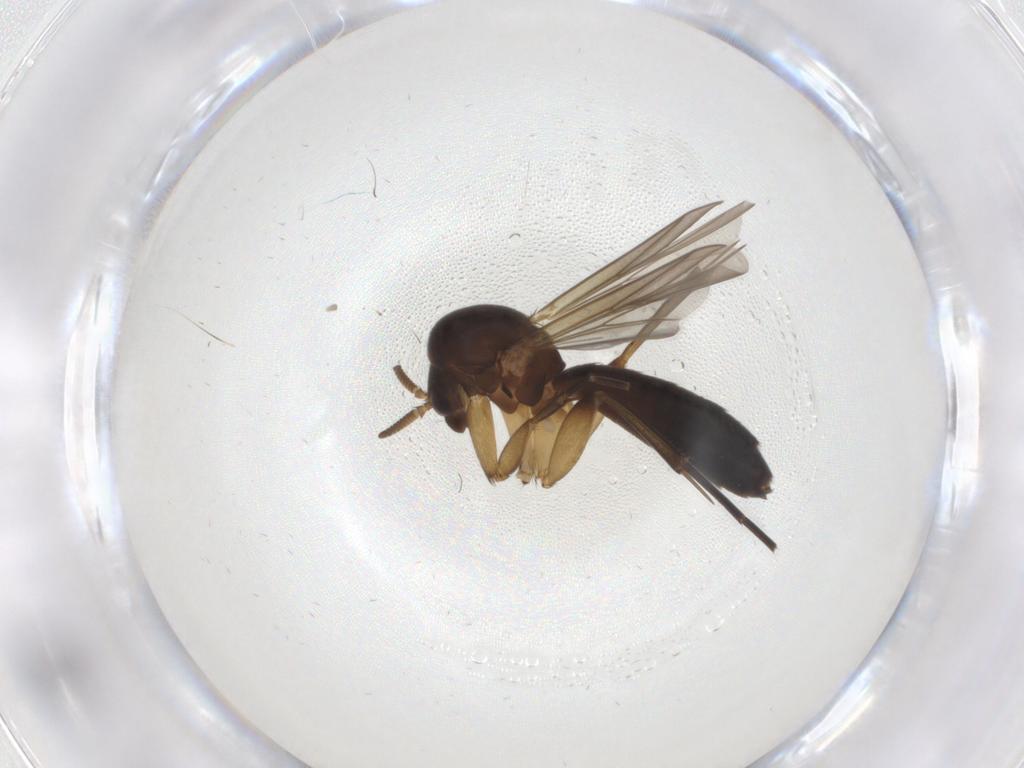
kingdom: Animalia
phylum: Arthropoda
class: Insecta
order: Diptera
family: Mycetophilidae
